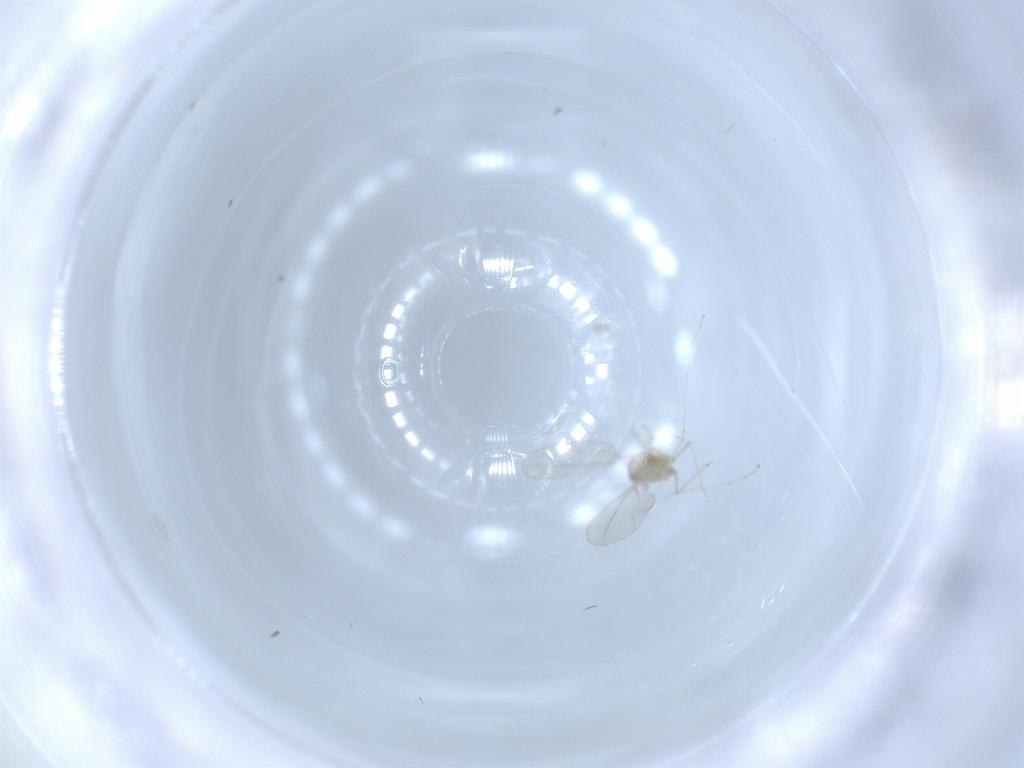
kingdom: Animalia
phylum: Arthropoda
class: Insecta
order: Diptera
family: Cecidomyiidae
